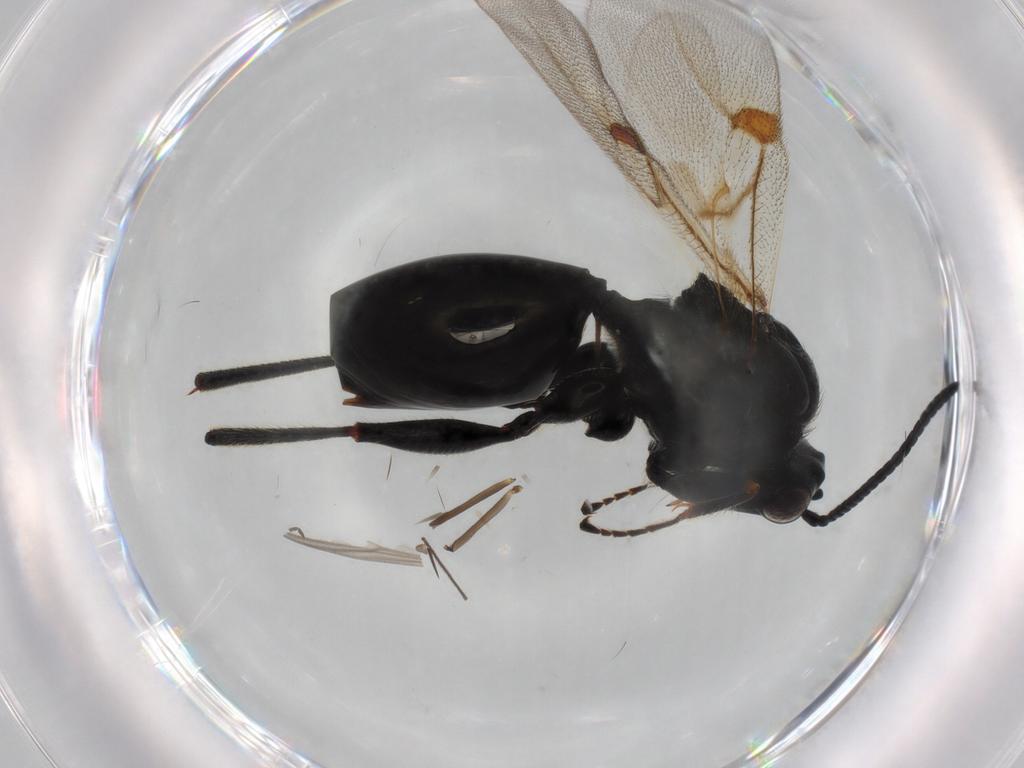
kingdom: Animalia
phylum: Arthropoda
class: Insecta
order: Hymenoptera
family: Figitidae
